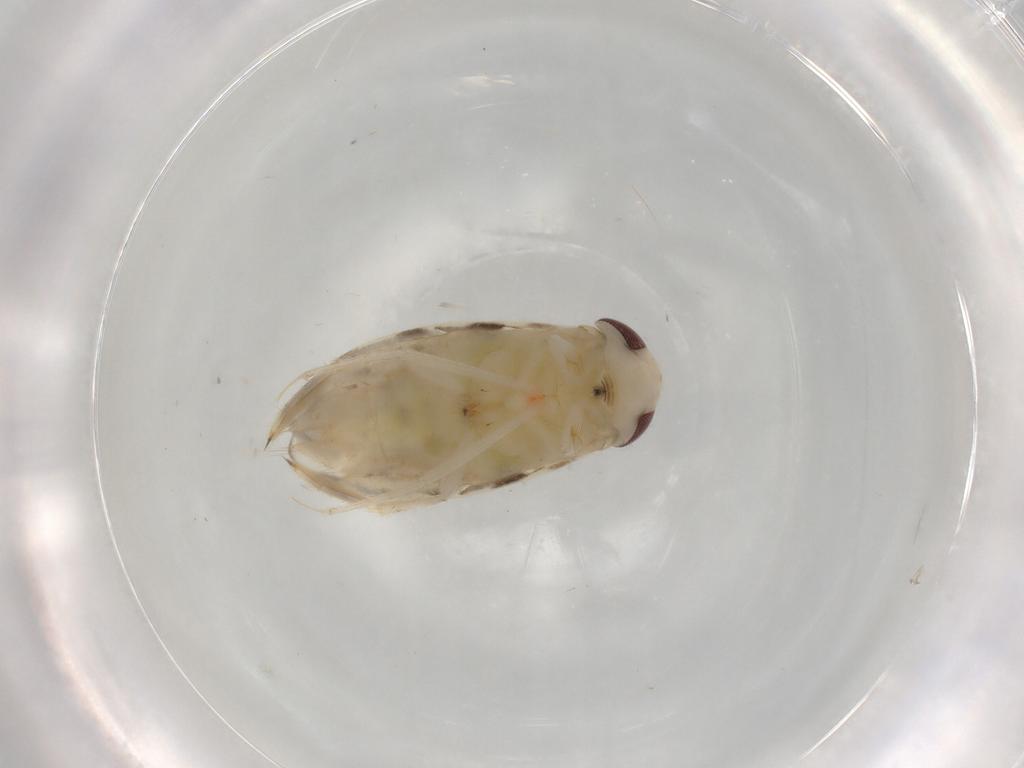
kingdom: Animalia
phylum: Arthropoda
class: Insecta
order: Hemiptera
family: Corixidae
